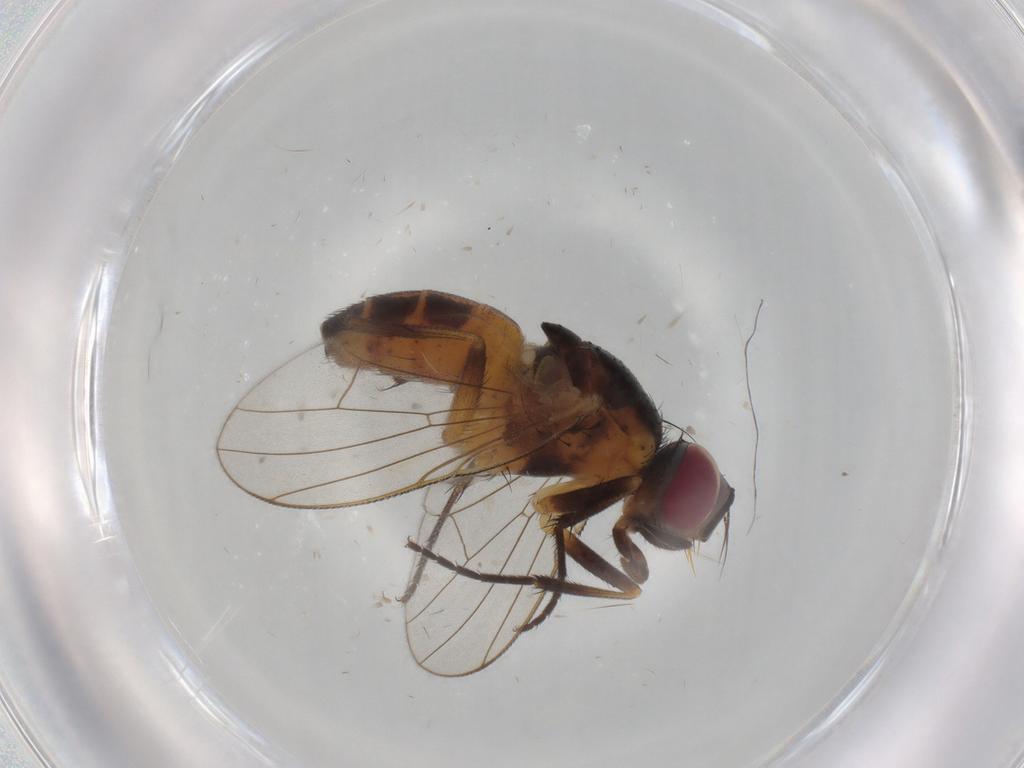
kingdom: Animalia
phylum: Arthropoda
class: Insecta
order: Diptera
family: Sciaridae
